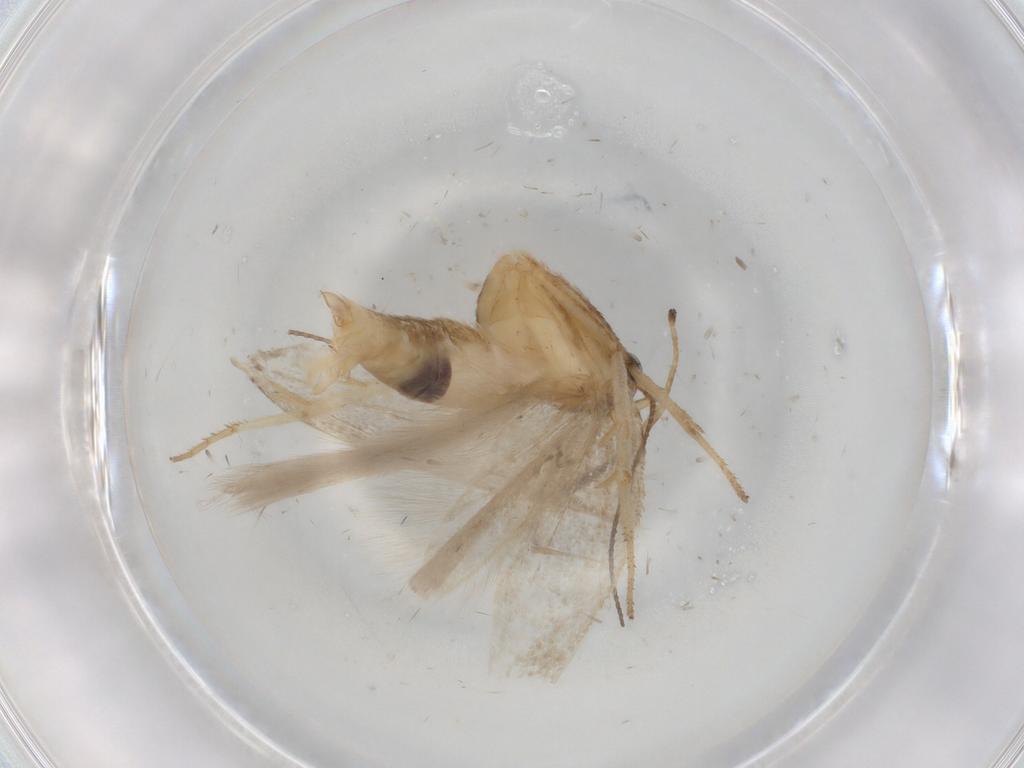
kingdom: Animalia
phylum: Arthropoda
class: Insecta
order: Lepidoptera
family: Gelechiidae
